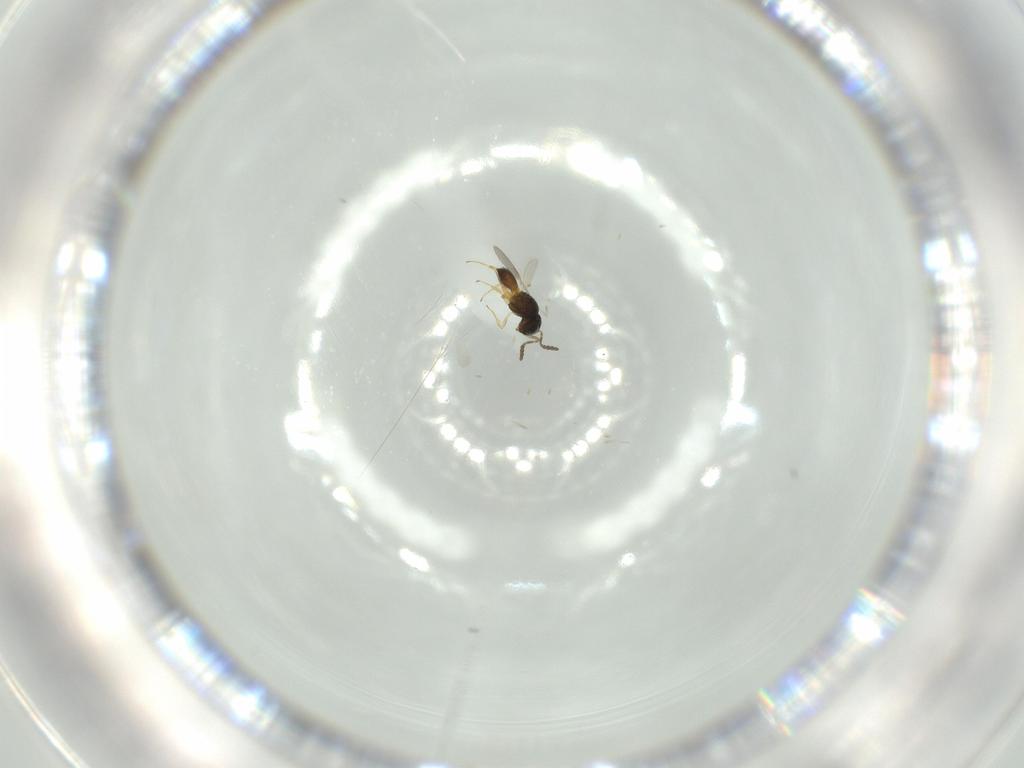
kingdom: Animalia
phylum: Arthropoda
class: Insecta
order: Hymenoptera
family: Scelionidae
